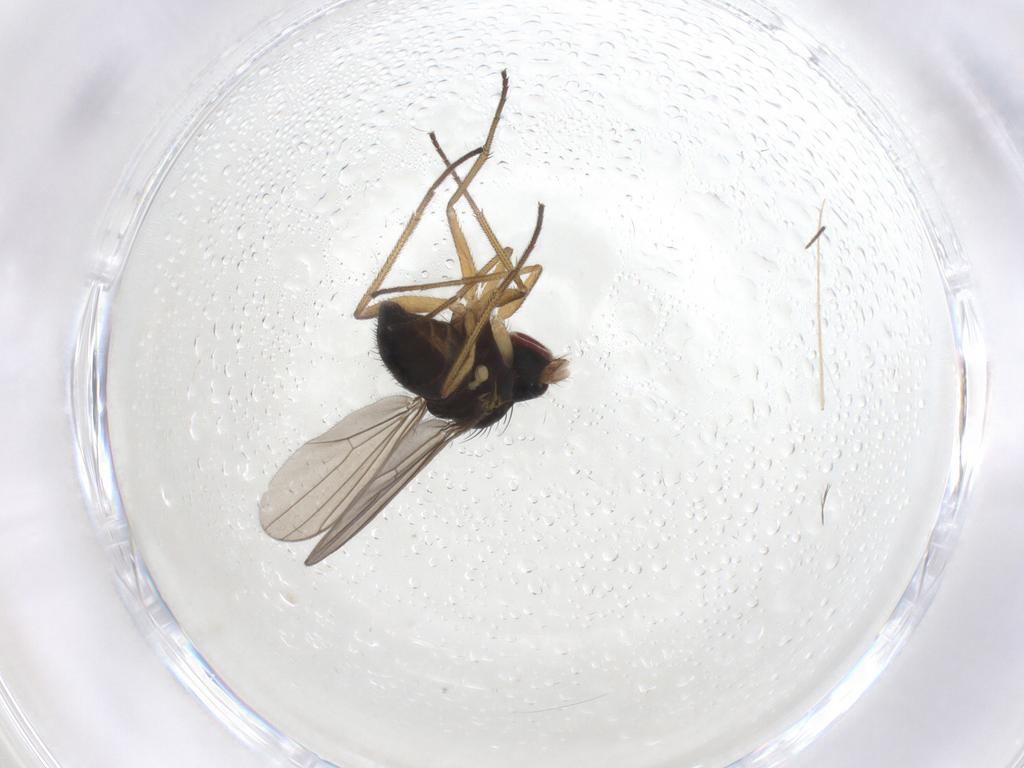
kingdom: Animalia
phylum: Arthropoda
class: Insecta
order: Diptera
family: Dolichopodidae
